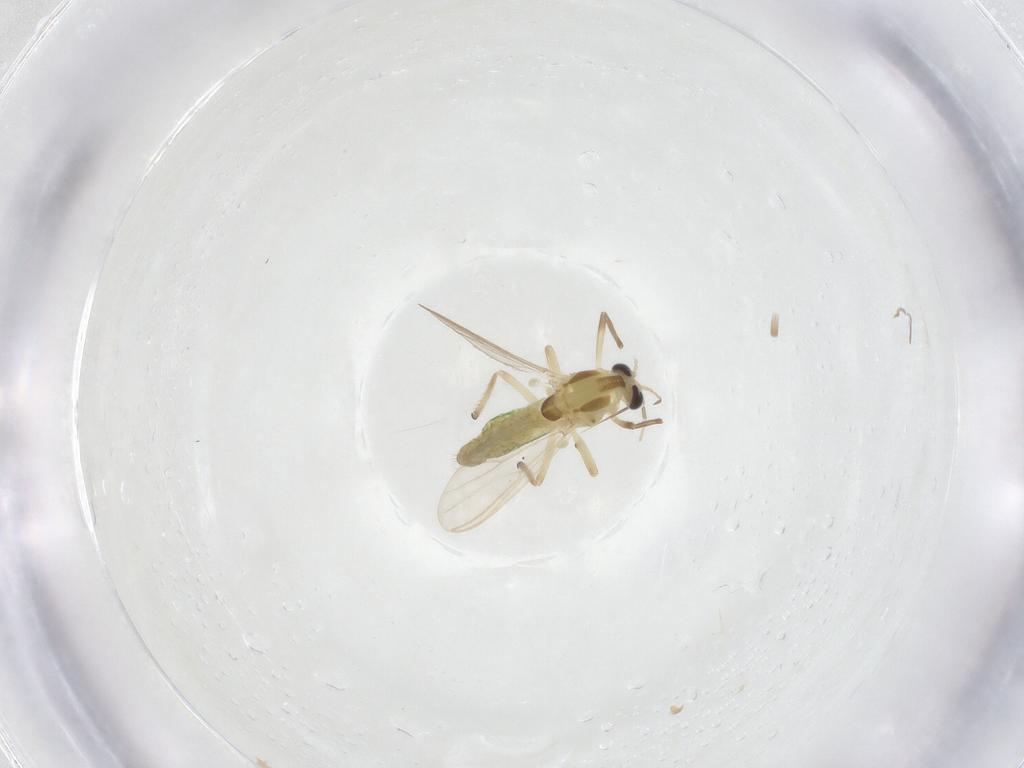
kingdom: Animalia
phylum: Arthropoda
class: Insecta
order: Diptera
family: Chironomidae
